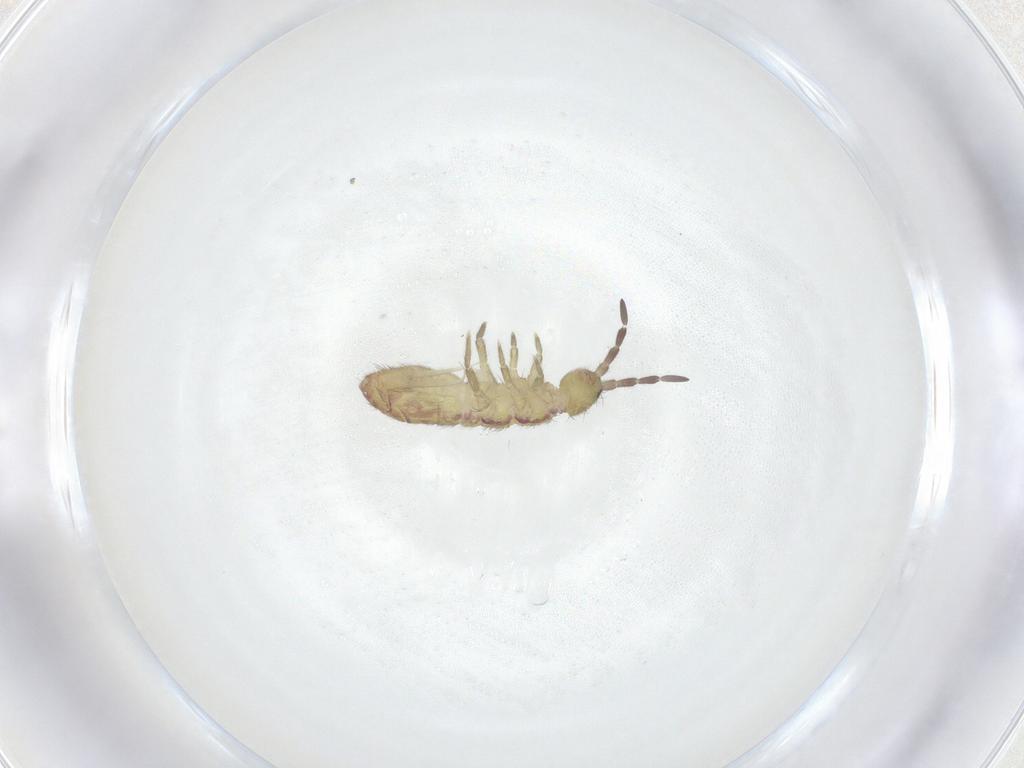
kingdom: Animalia
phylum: Arthropoda
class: Collembola
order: Entomobryomorpha
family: Isotomidae
